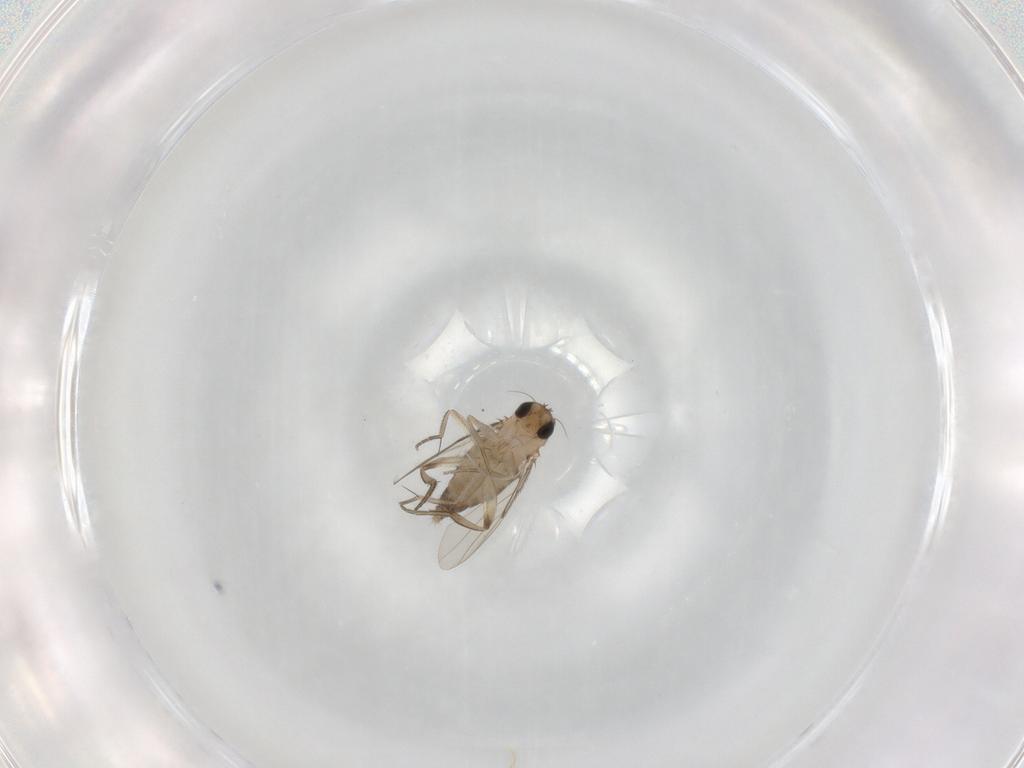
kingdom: Animalia
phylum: Arthropoda
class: Insecta
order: Diptera
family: Phoridae
